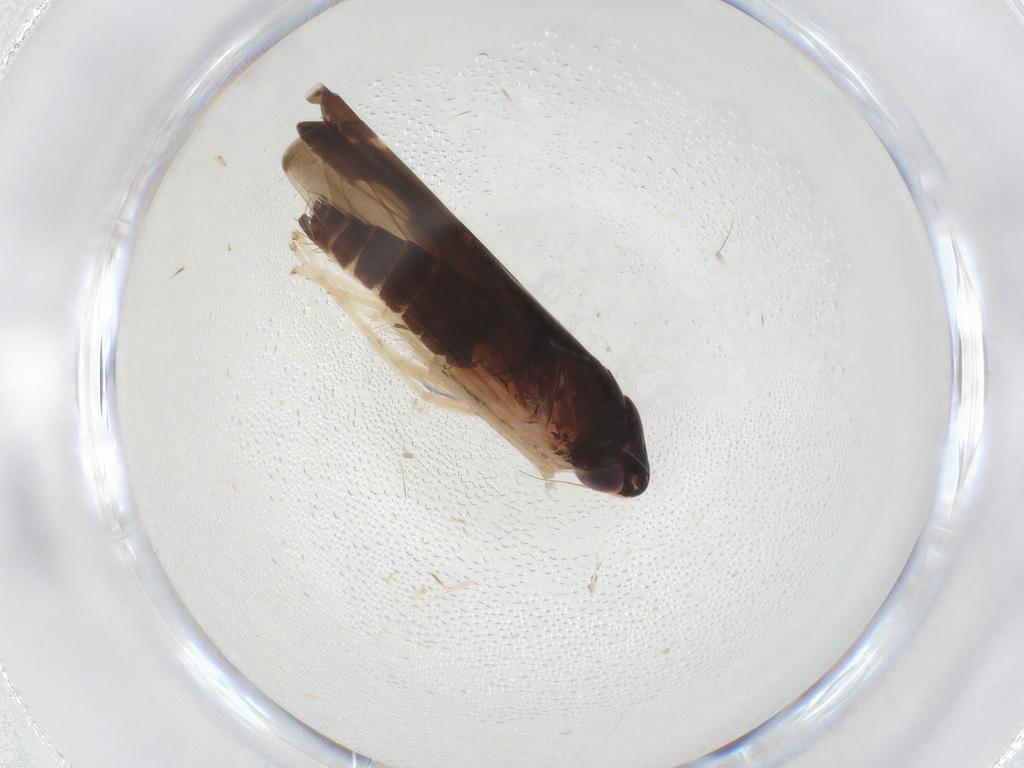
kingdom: Animalia
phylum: Arthropoda
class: Insecta
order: Hemiptera
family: Cicadellidae
